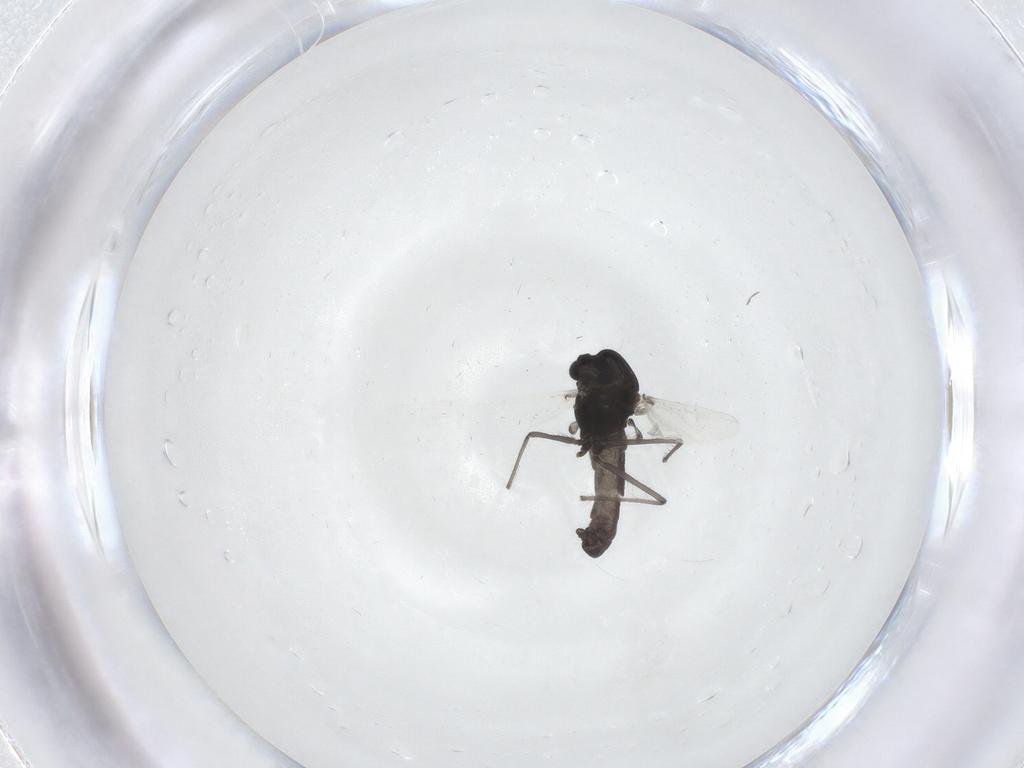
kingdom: Animalia
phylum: Arthropoda
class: Insecta
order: Diptera
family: Chironomidae
